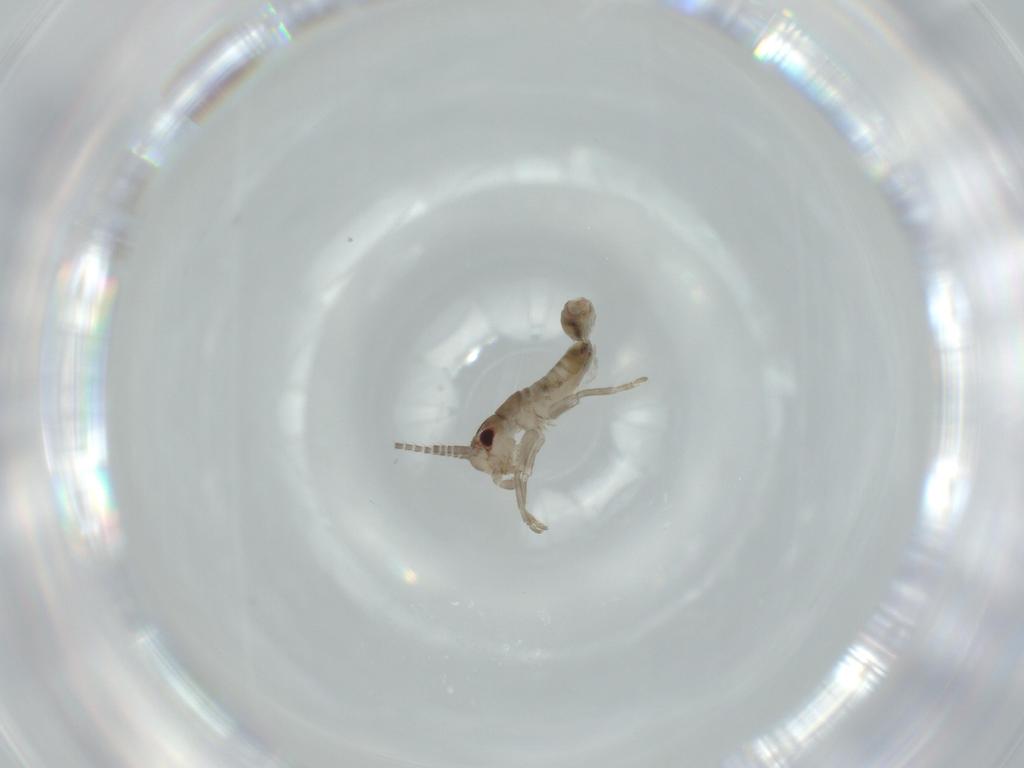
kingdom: Animalia
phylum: Arthropoda
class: Insecta
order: Orthoptera
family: Gryllidae
